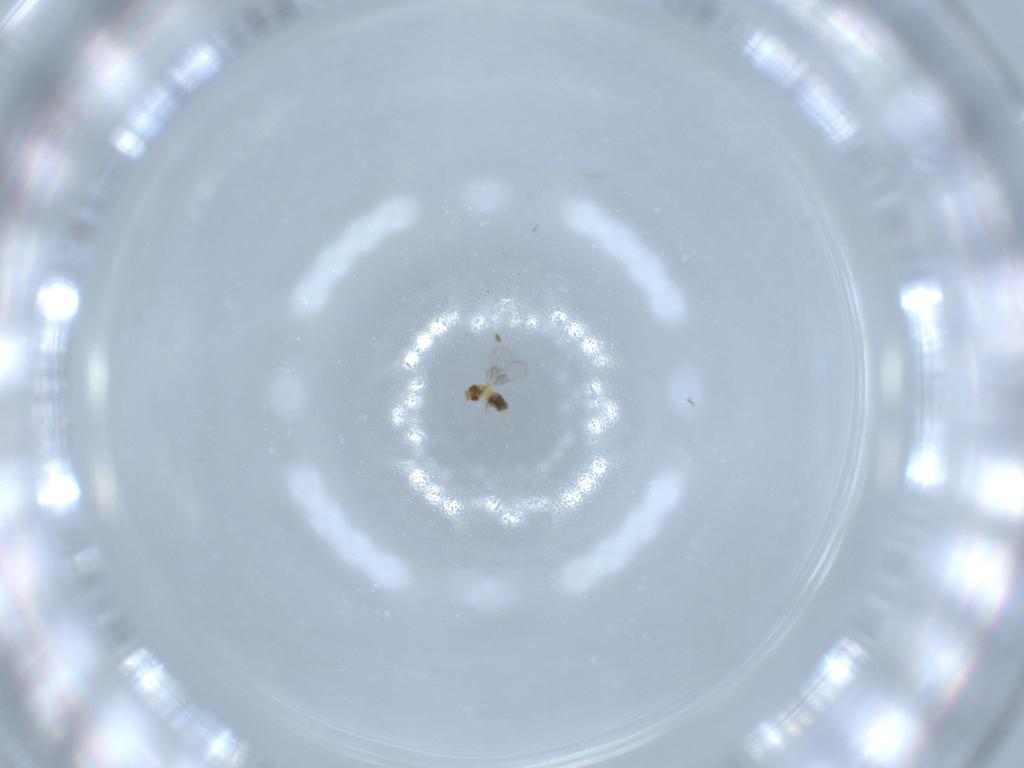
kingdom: Animalia
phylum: Arthropoda
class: Insecta
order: Hymenoptera
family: Trichogrammatidae
